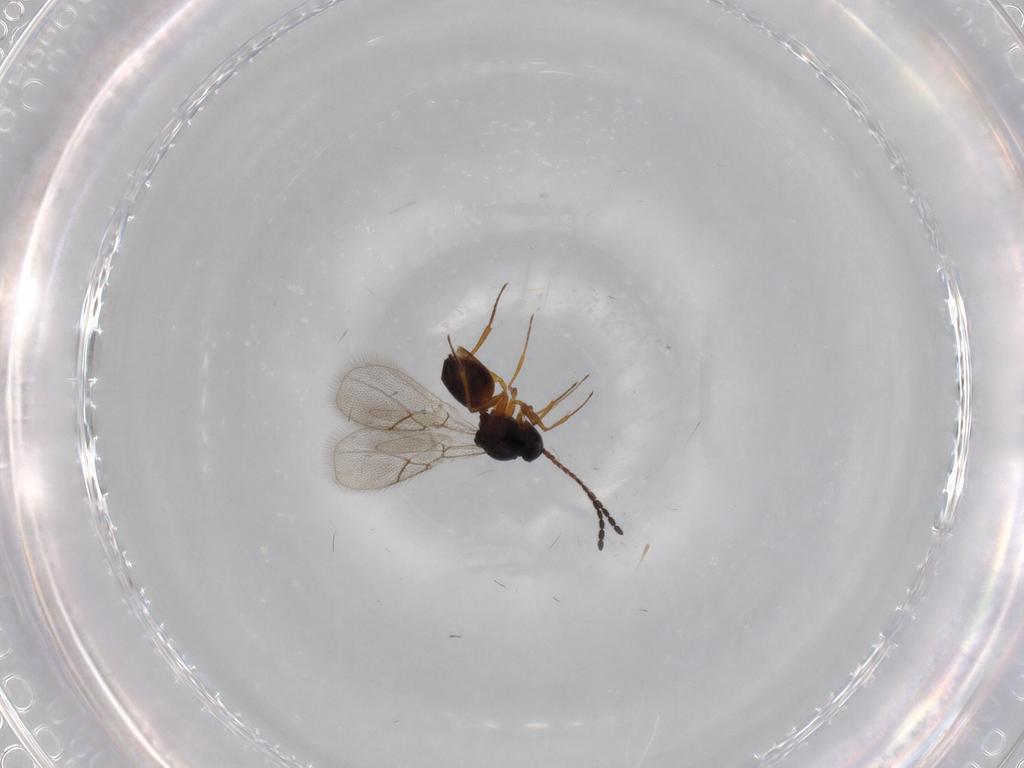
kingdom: Animalia
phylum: Arthropoda
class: Insecta
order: Hymenoptera
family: Figitidae
